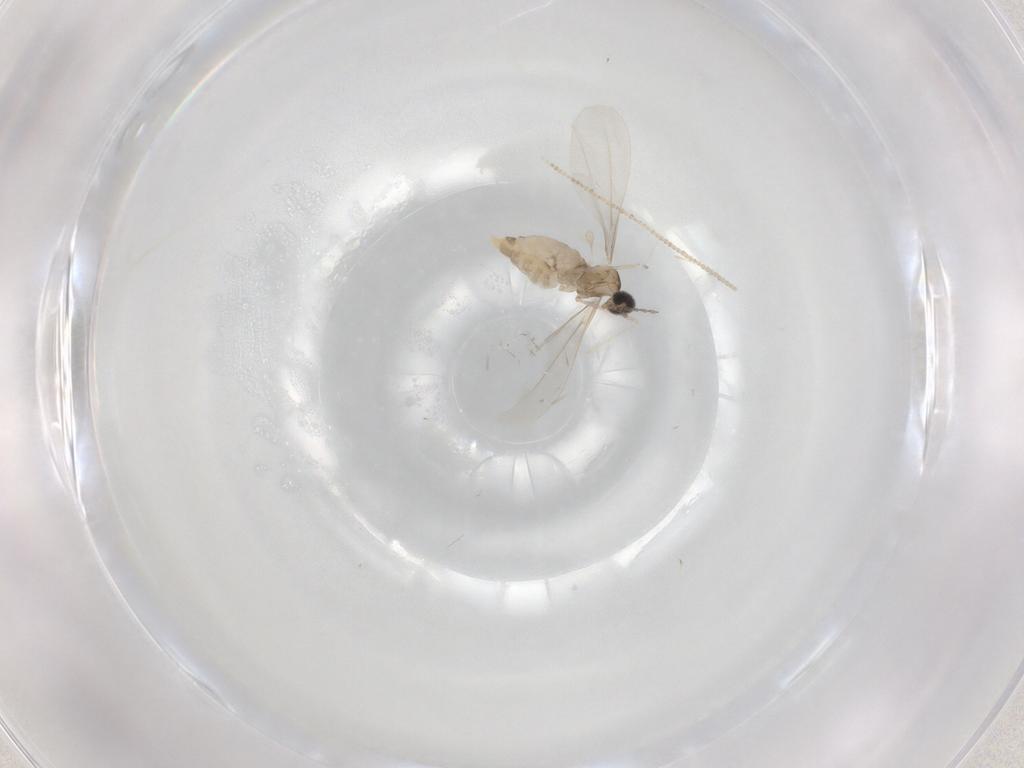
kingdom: Animalia
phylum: Arthropoda
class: Insecta
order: Diptera
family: Cecidomyiidae
